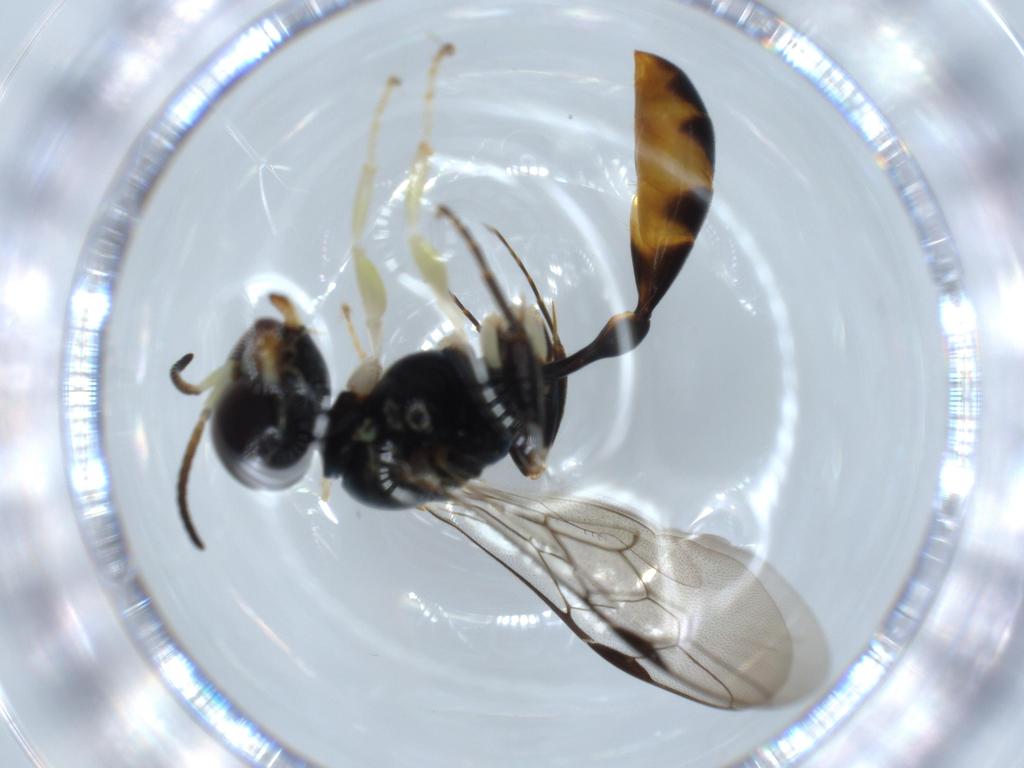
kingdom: Animalia
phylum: Arthropoda
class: Insecta
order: Hymenoptera
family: Crabronidae
